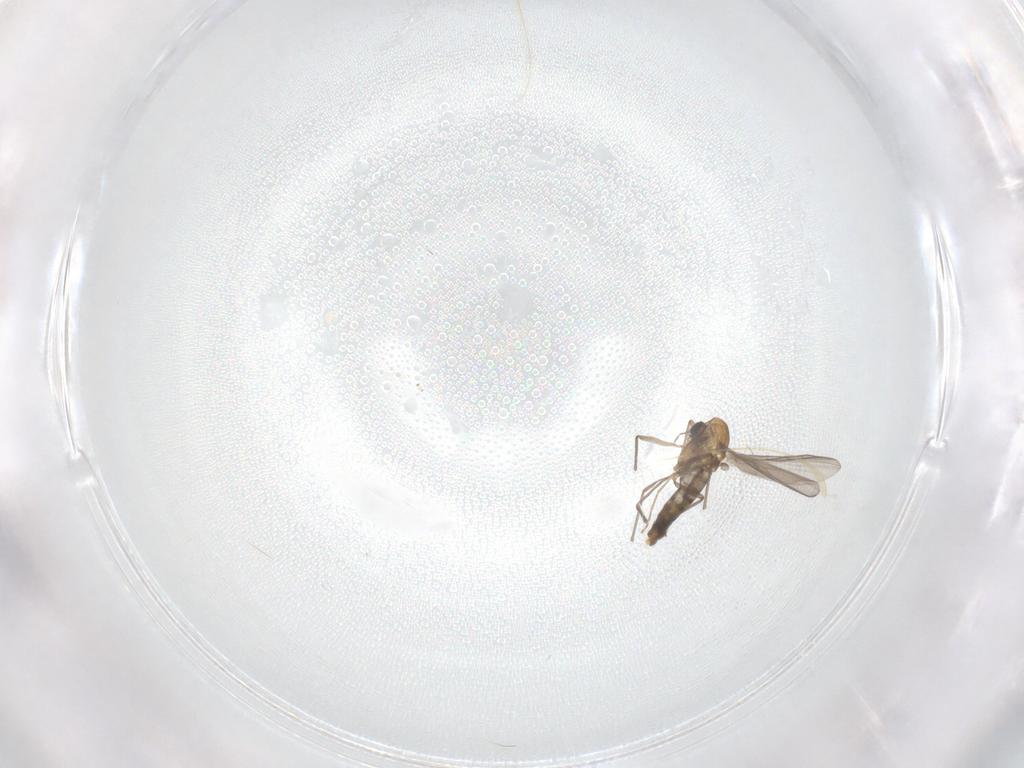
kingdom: Animalia
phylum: Arthropoda
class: Insecta
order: Diptera
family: Chironomidae
